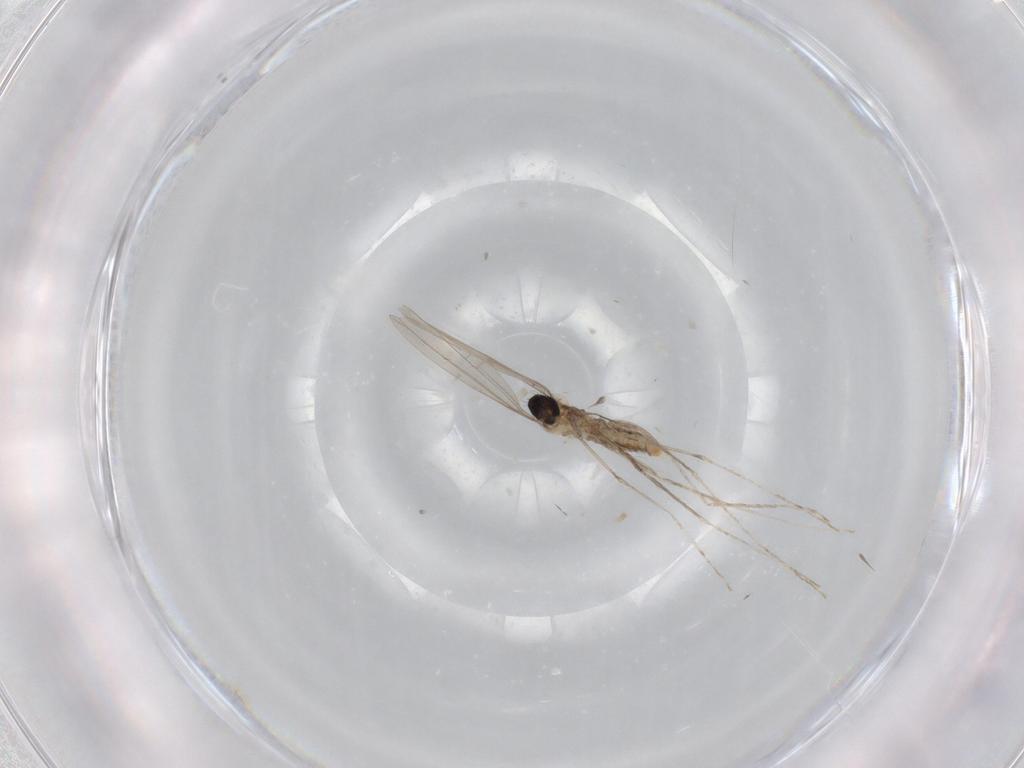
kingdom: Animalia
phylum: Arthropoda
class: Insecta
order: Diptera
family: Cecidomyiidae
